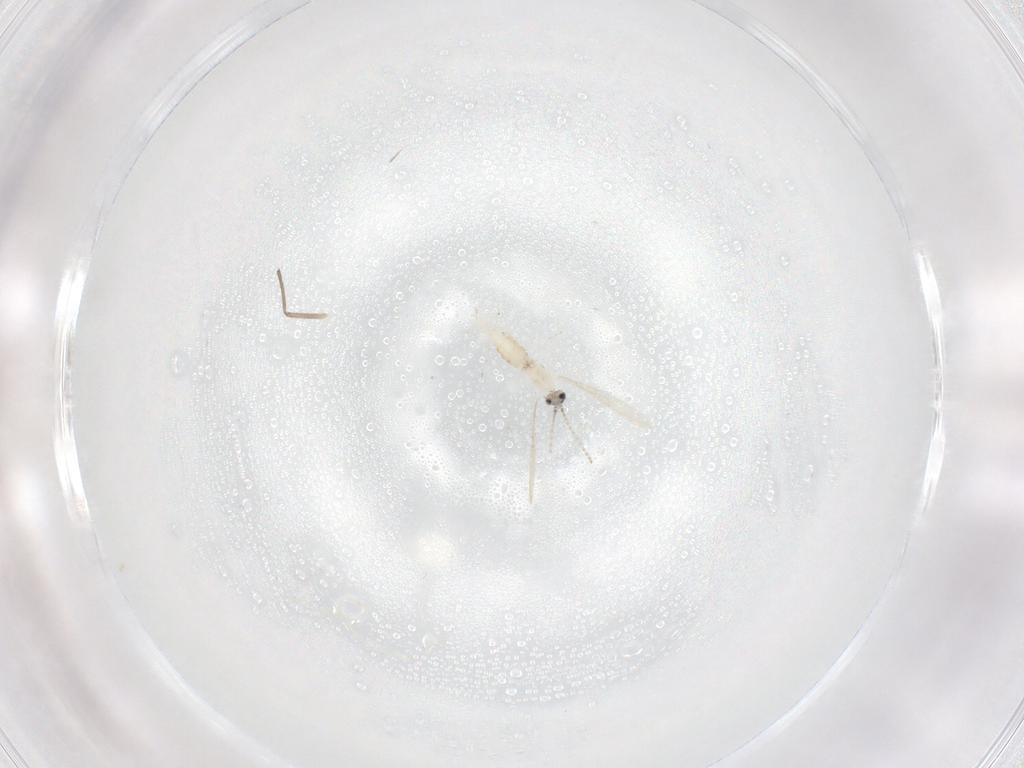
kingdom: Animalia
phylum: Arthropoda
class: Insecta
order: Diptera
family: Cecidomyiidae
